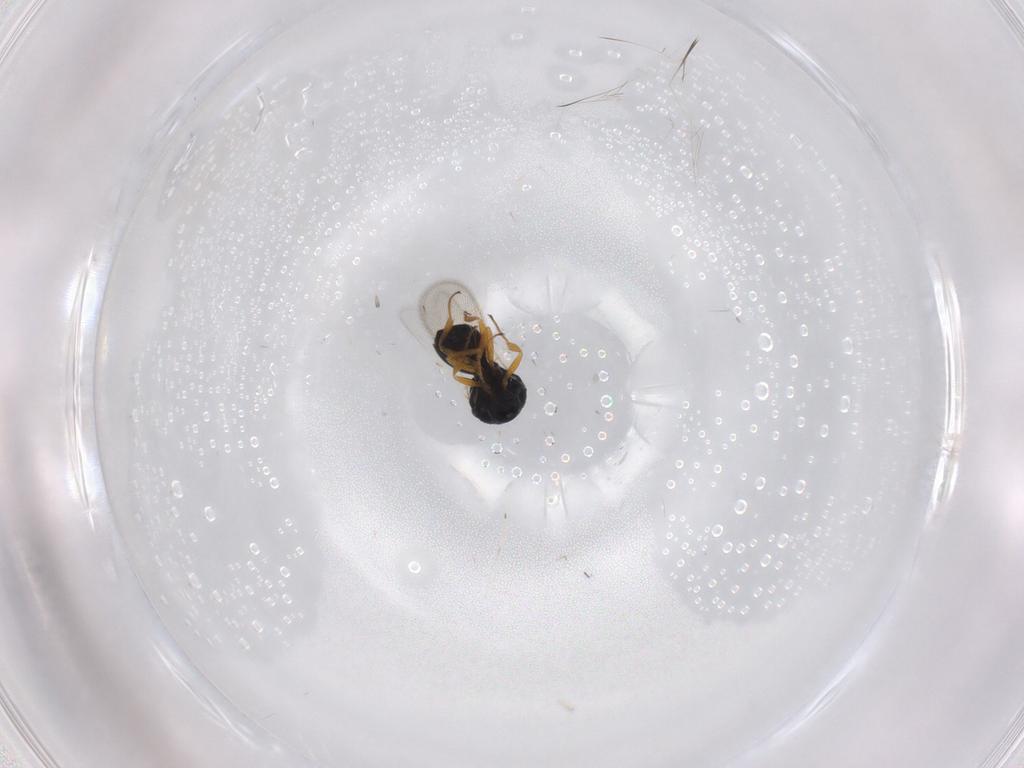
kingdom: Animalia
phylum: Arthropoda
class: Insecta
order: Hymenoptera
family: Scelionidae
